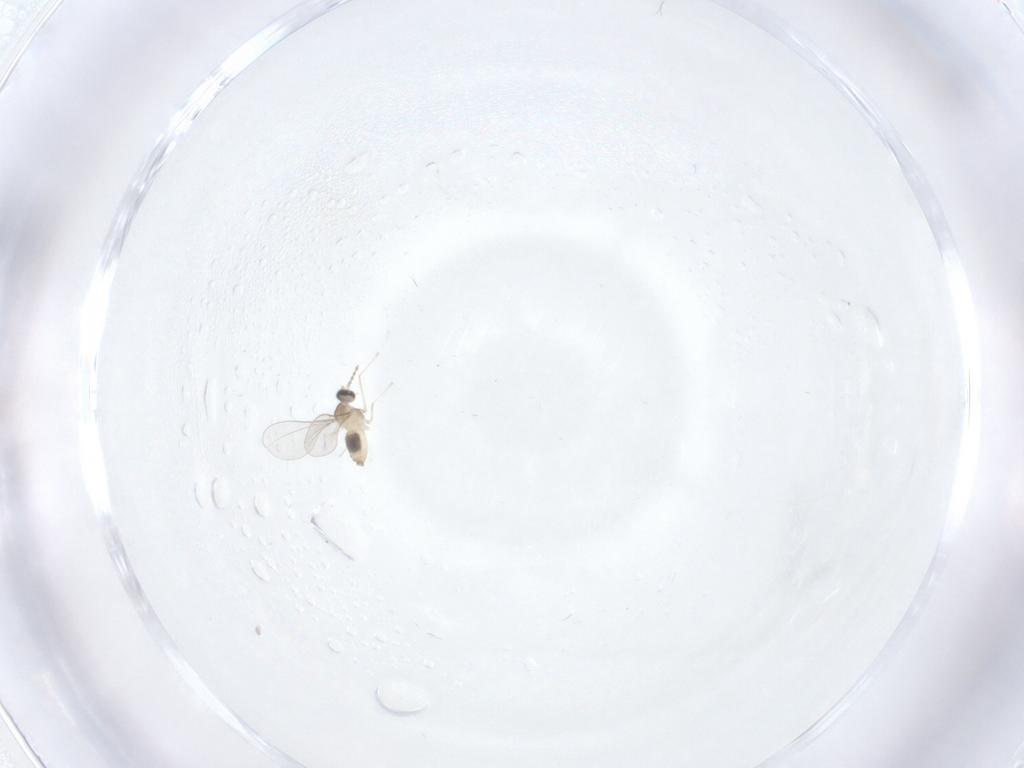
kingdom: Animalia
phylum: Arthropoda
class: Insecta
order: Diptera
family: Cecidomyiidae
